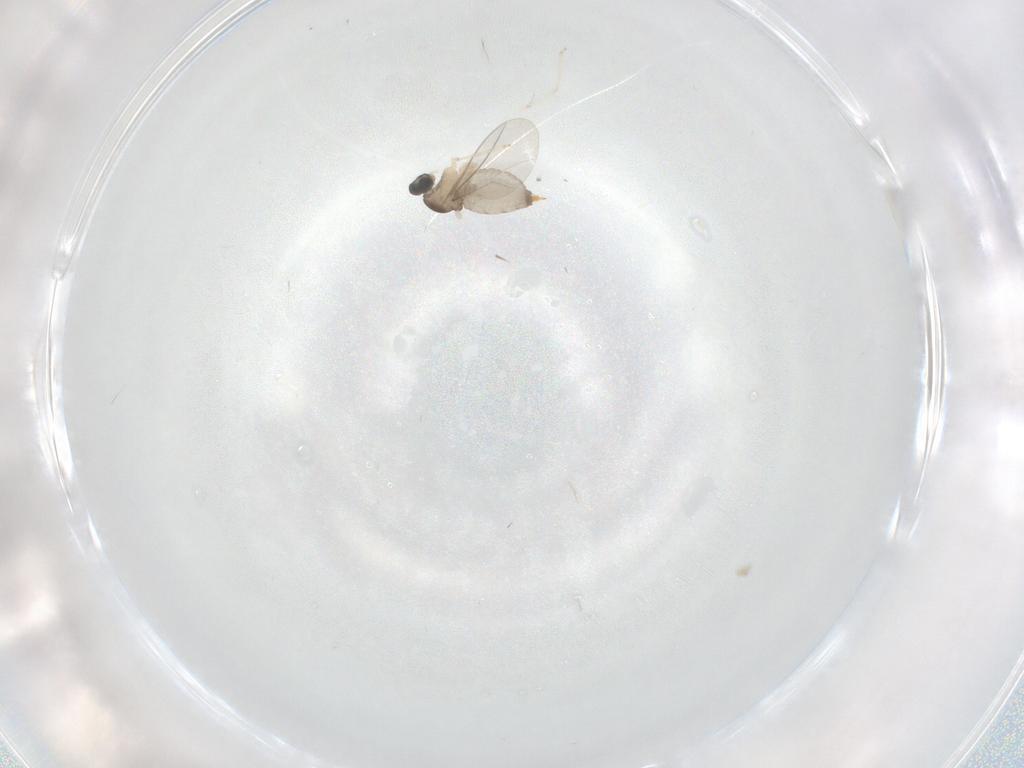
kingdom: Animalia
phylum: Arthropoda
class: Insecta
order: Diptera
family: Cecidomyiidae
